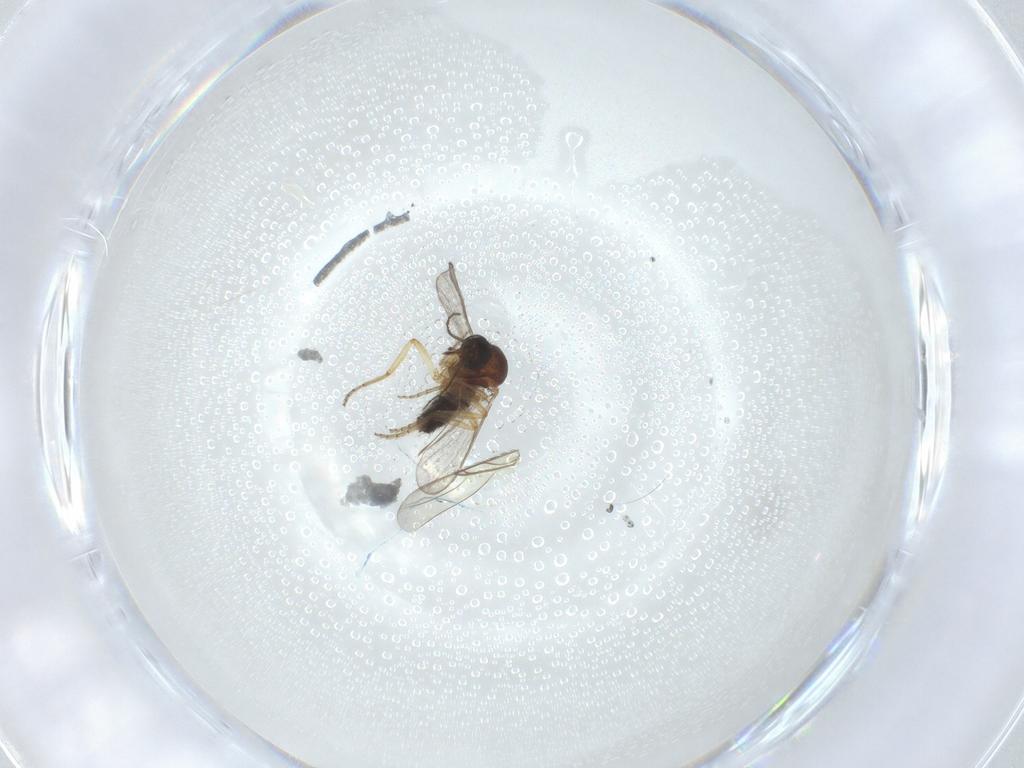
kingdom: Animalia
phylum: Arthropoda
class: Insecta
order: Diptera
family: Ceratopogonidae
